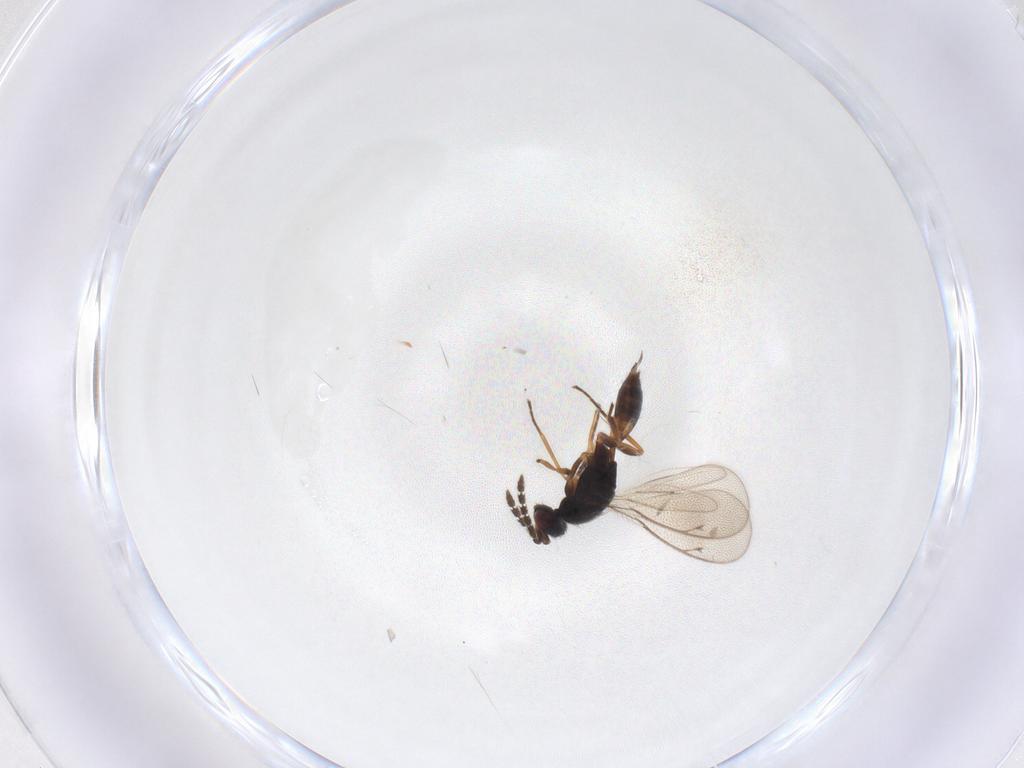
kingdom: Animalia
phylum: Arthropoda
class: Insecta
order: Hymenoptera
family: Eulophidae
